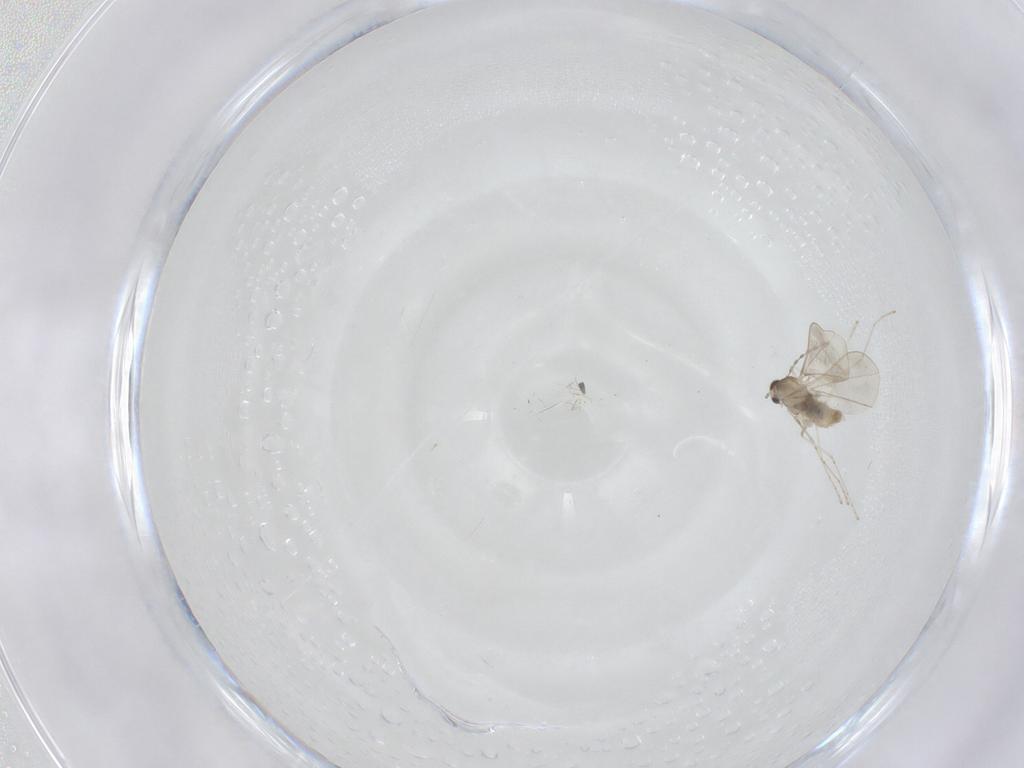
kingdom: Animalia
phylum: Arthropoda
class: Insecta
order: Diptera
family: Cecidomyiidae
